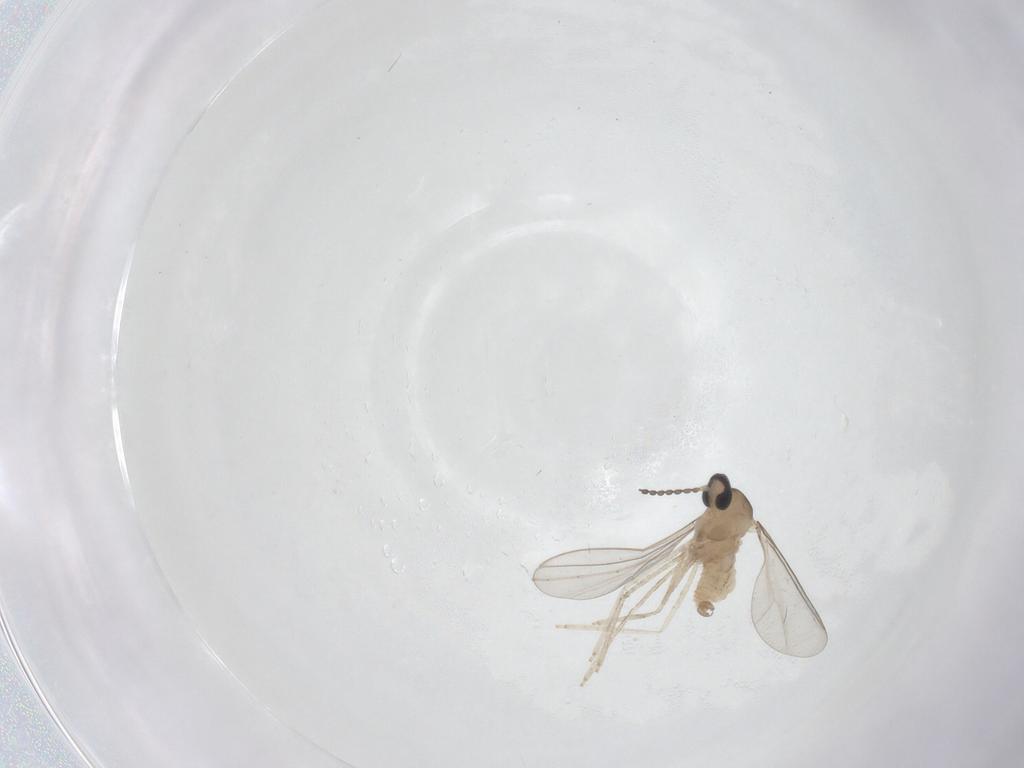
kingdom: Animalia
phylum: Arthropoda
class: Insecta
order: Diptera
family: Cecidomyiidae
